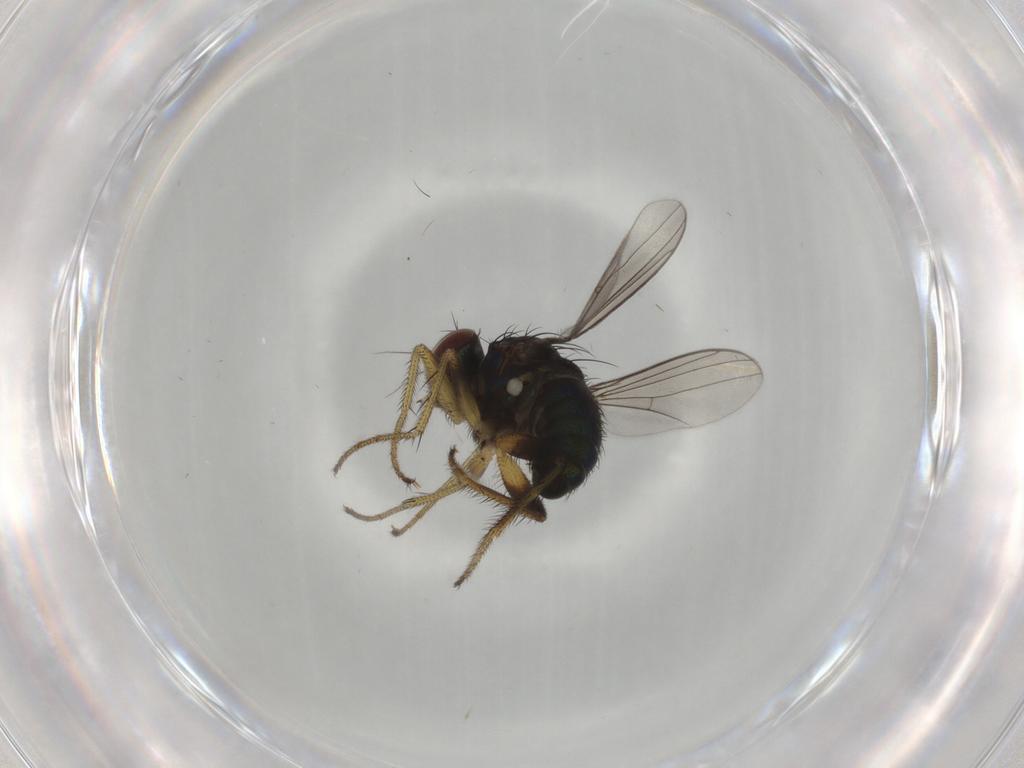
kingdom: Animalia
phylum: Arthropoda
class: Insecta
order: Diptera
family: Dolichopodidae
